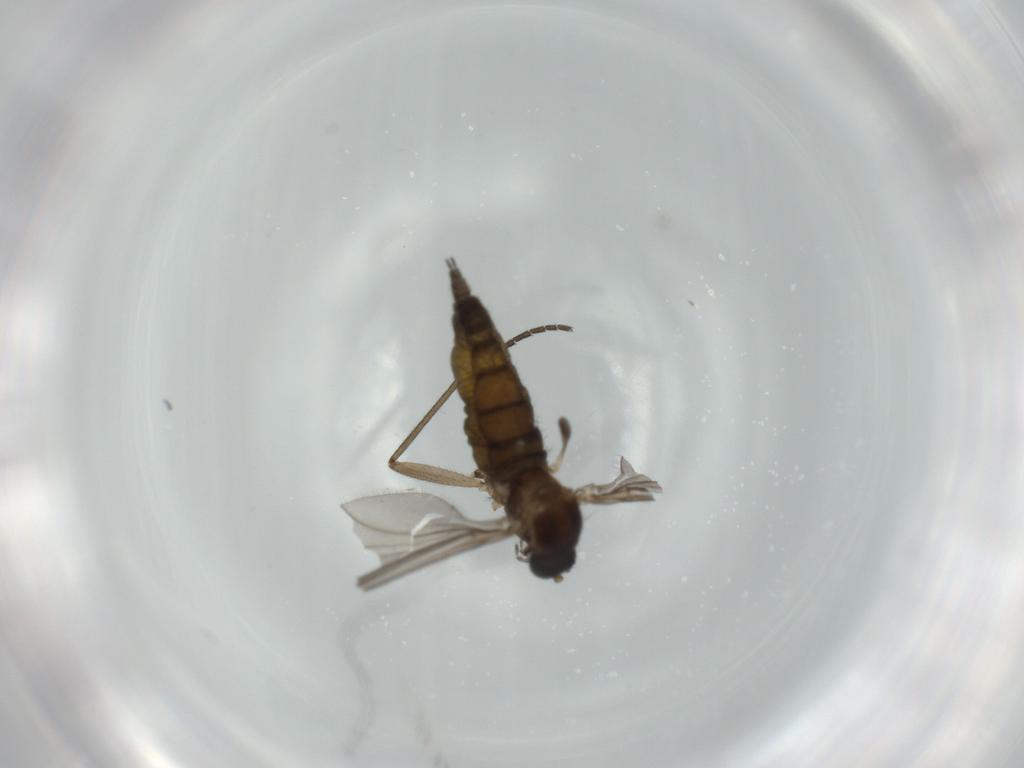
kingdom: Animalia
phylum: Arthropoda
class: Insecta
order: Diptera
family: Sciaridae
